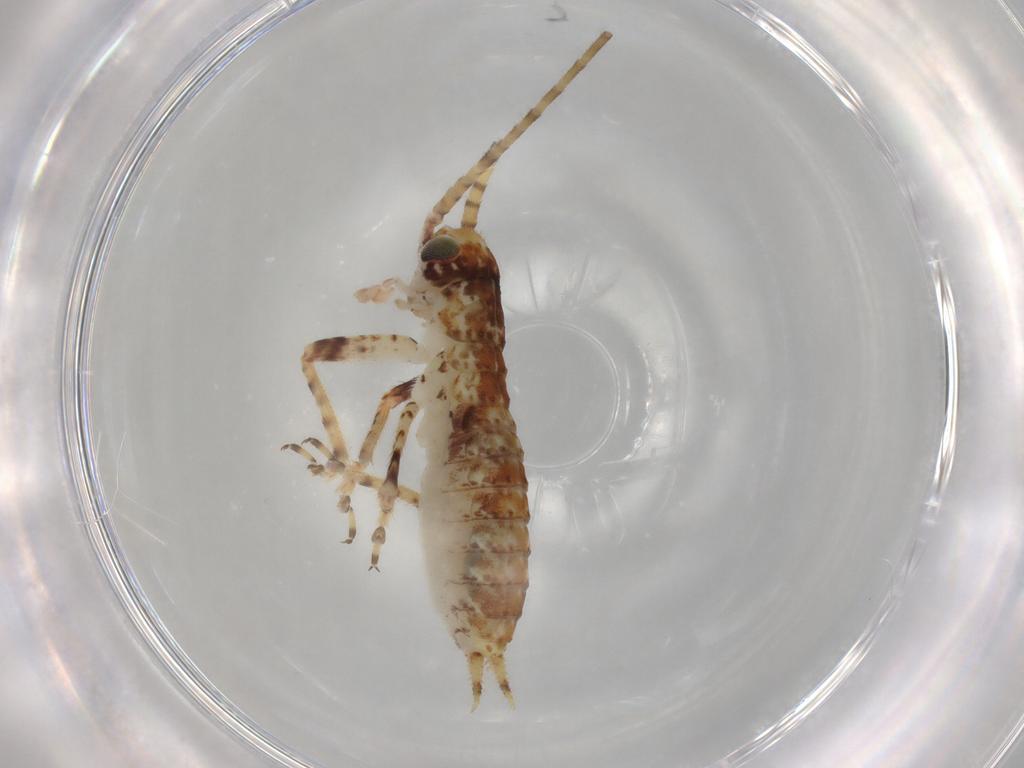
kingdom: Animalia
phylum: Arthropoda
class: Insecta
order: Orthoptera
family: Gryllidae
